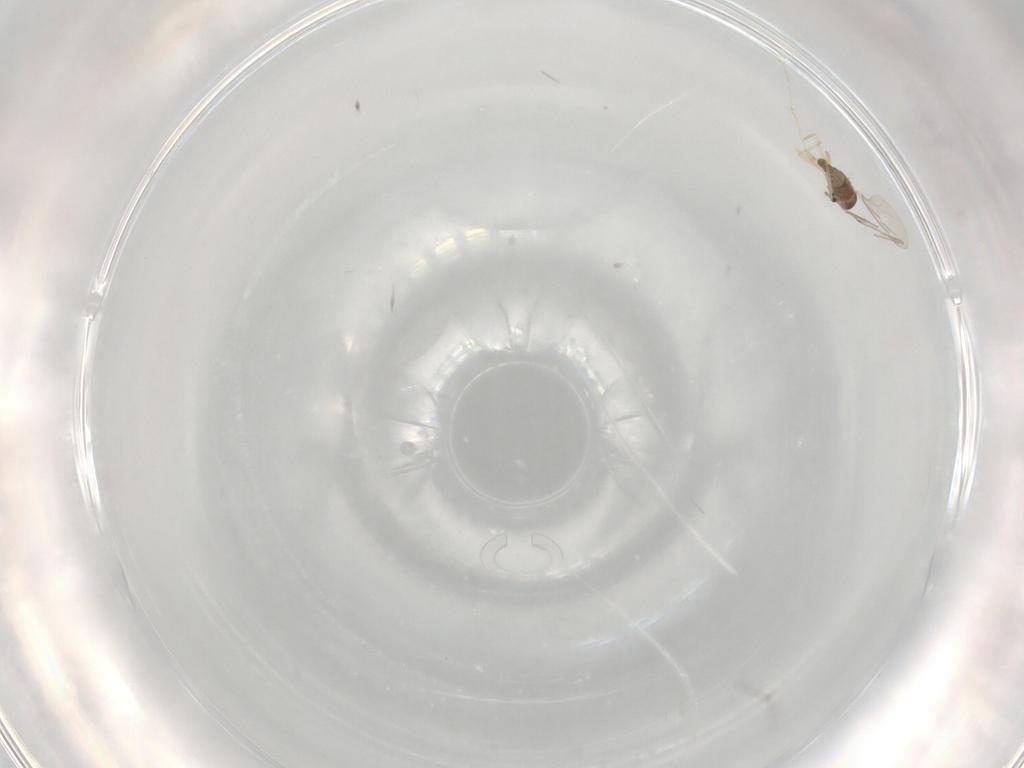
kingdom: Animalia
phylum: Arthropoda
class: Insecta
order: Diptera
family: Cecidomyiidae
